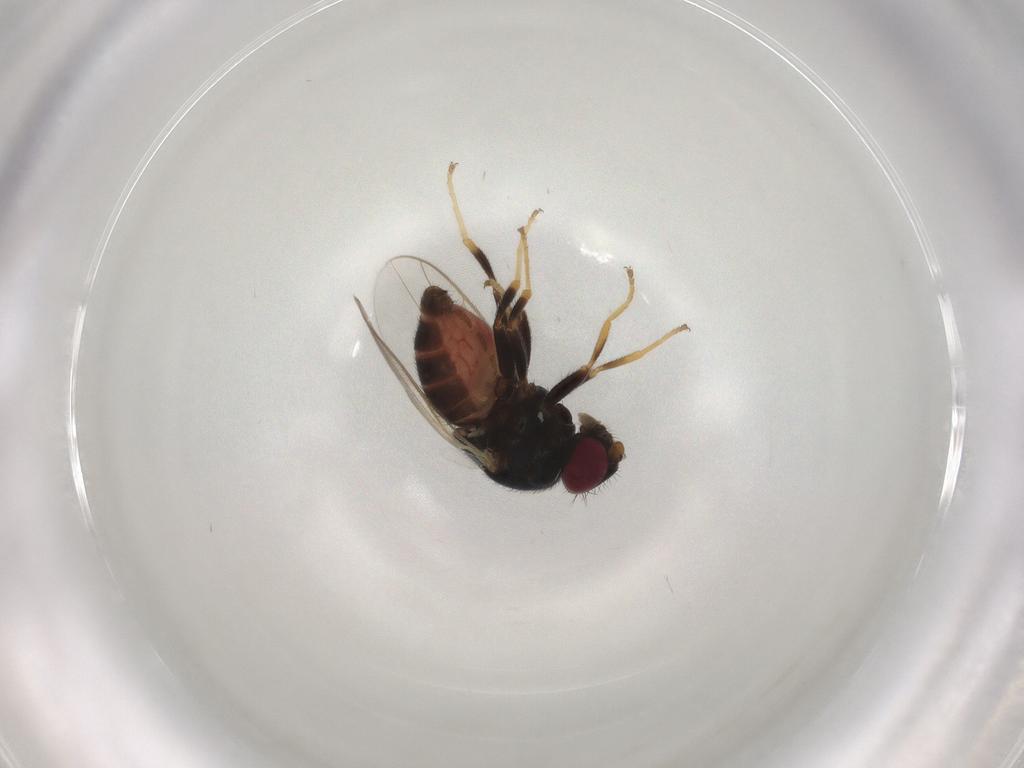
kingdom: Animalia
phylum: Arthropoda
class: Insecta
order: Diptera
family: Chloropidae
